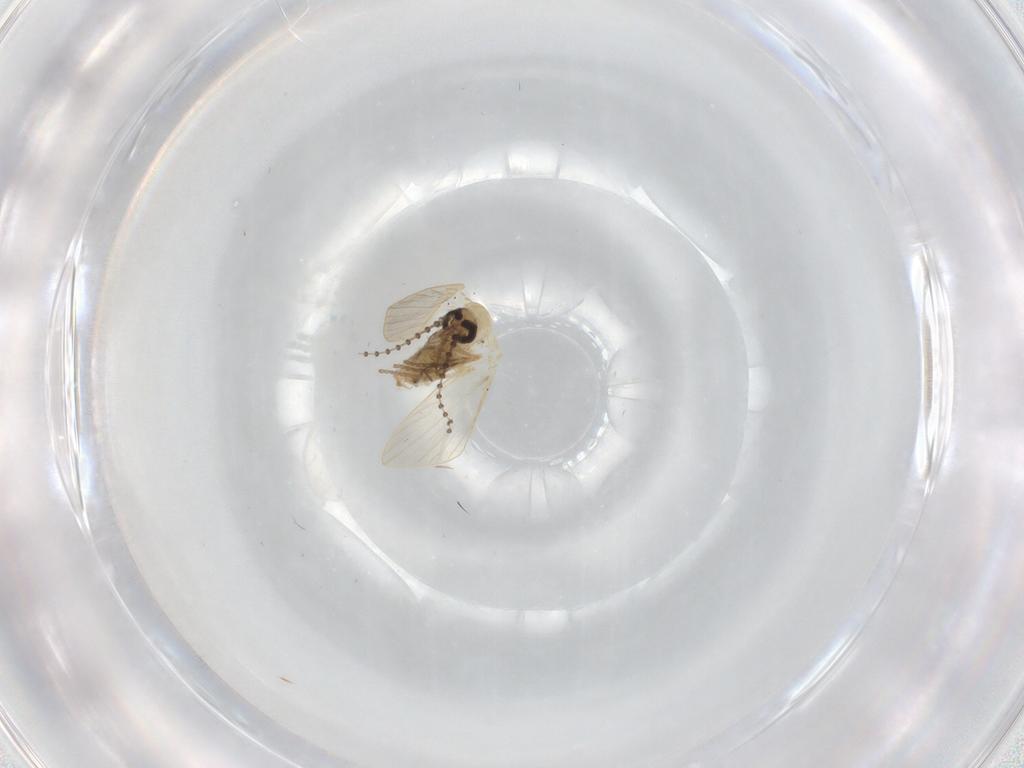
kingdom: Animalia
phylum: Arthropoda
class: Insecta
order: Diptera
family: Psychodidae
